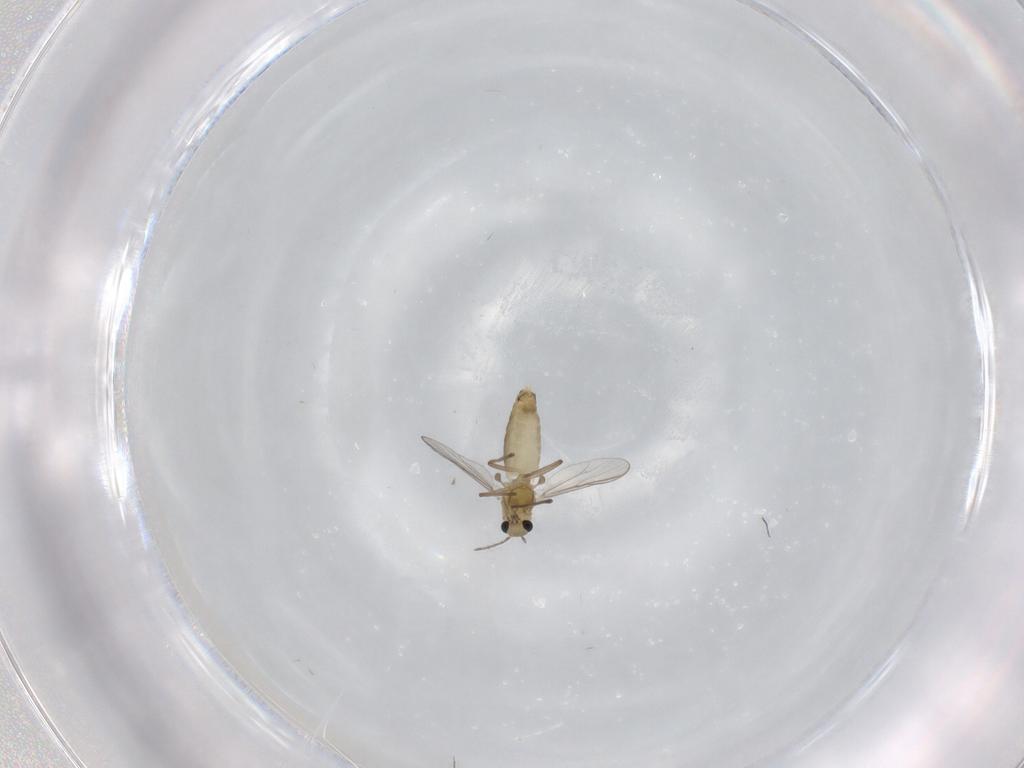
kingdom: Animalia
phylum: Arthropoda
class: Insecta
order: Diptera
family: Chironomidae
